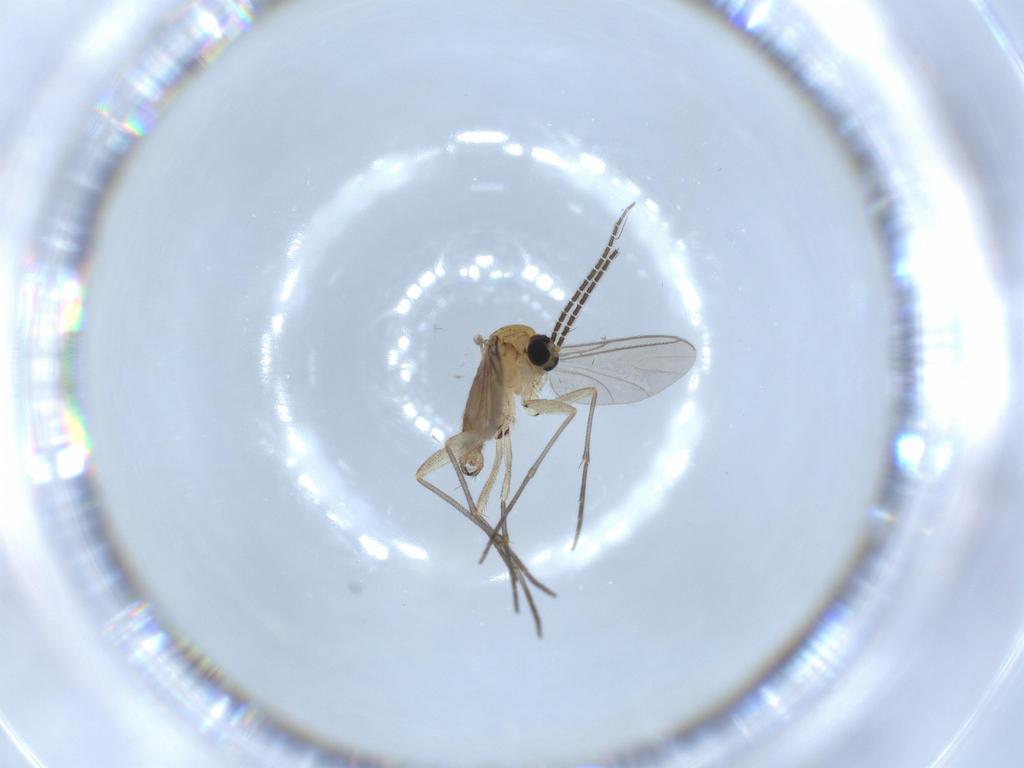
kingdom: Animalia
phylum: Arthropoda
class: Insecta
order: Diptera
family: Sciaridae
